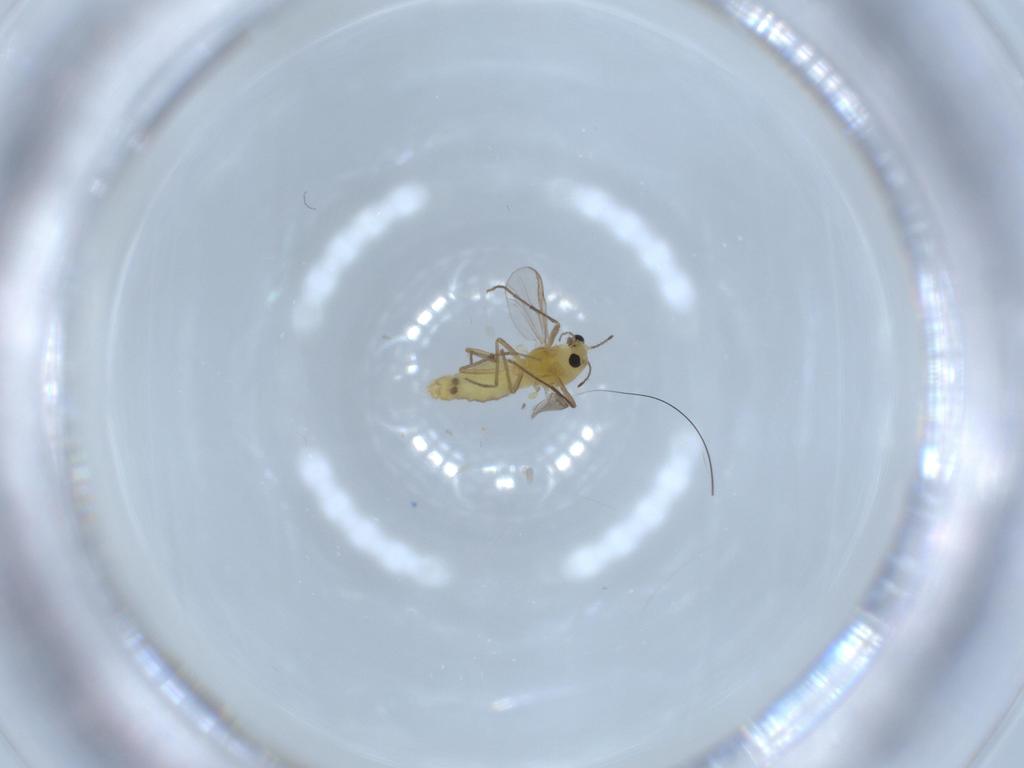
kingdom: Animalia
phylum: Arthropoda
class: Insecta
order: Diptera
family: Chironomidae
